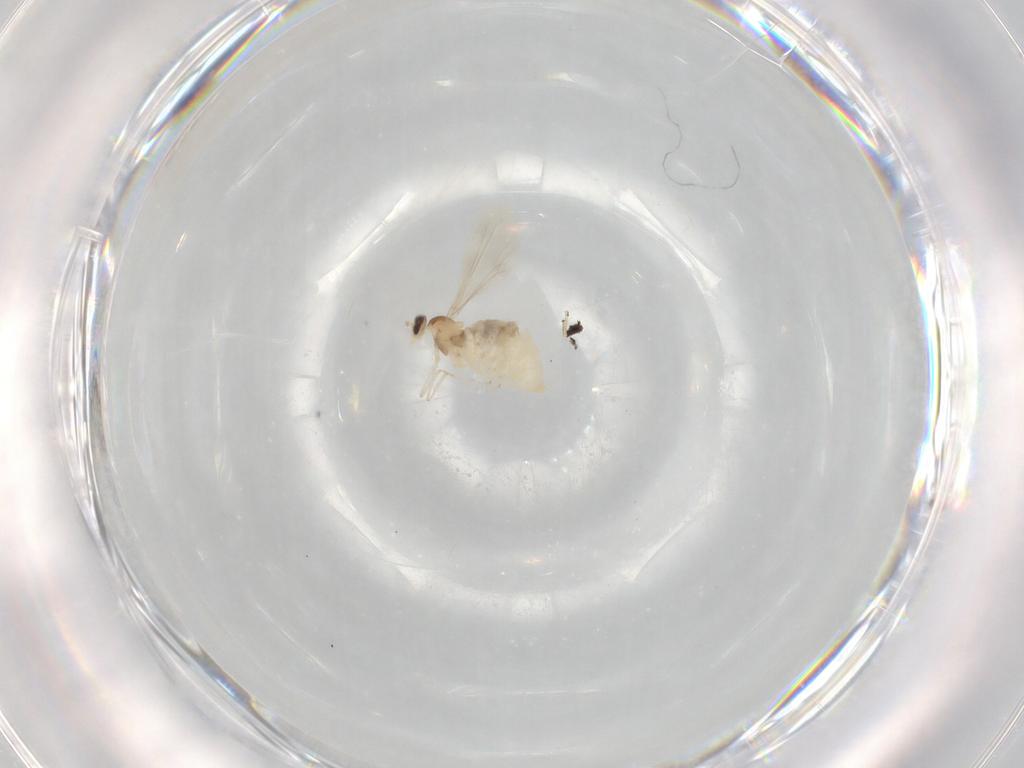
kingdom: Animalia
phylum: Arthropoda
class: Insecta
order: Diptera
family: Cecidomyiidae
